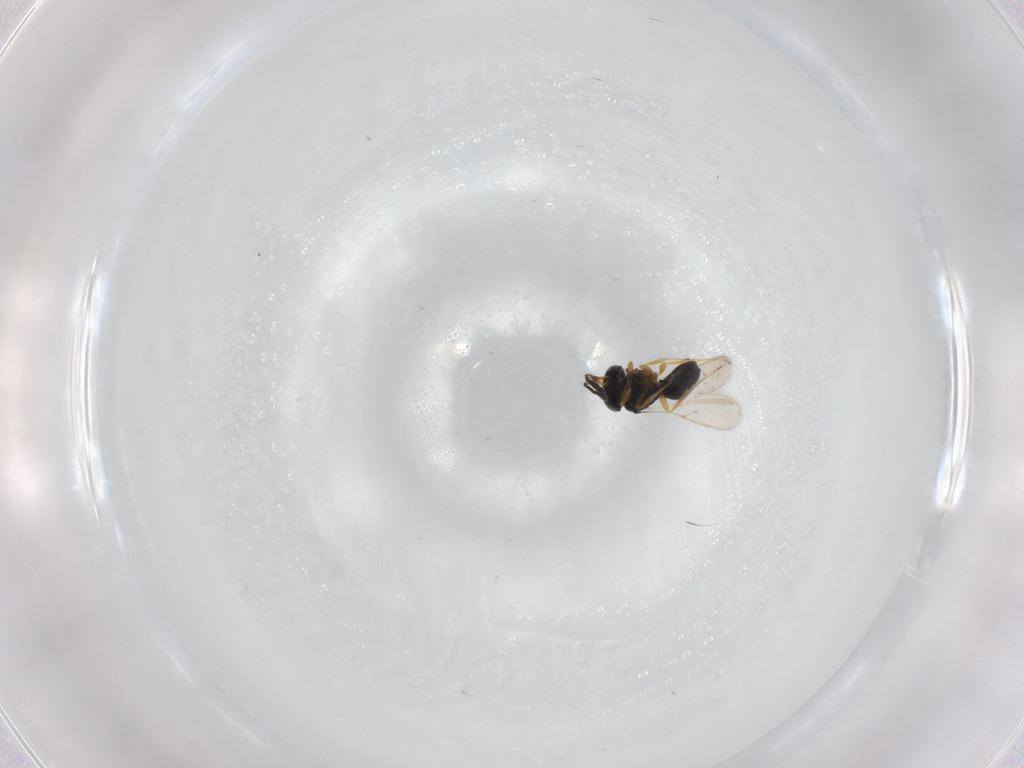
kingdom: Animalia
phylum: Arthropoda
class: Insecta
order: Hymenoptera
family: Scelionidae
